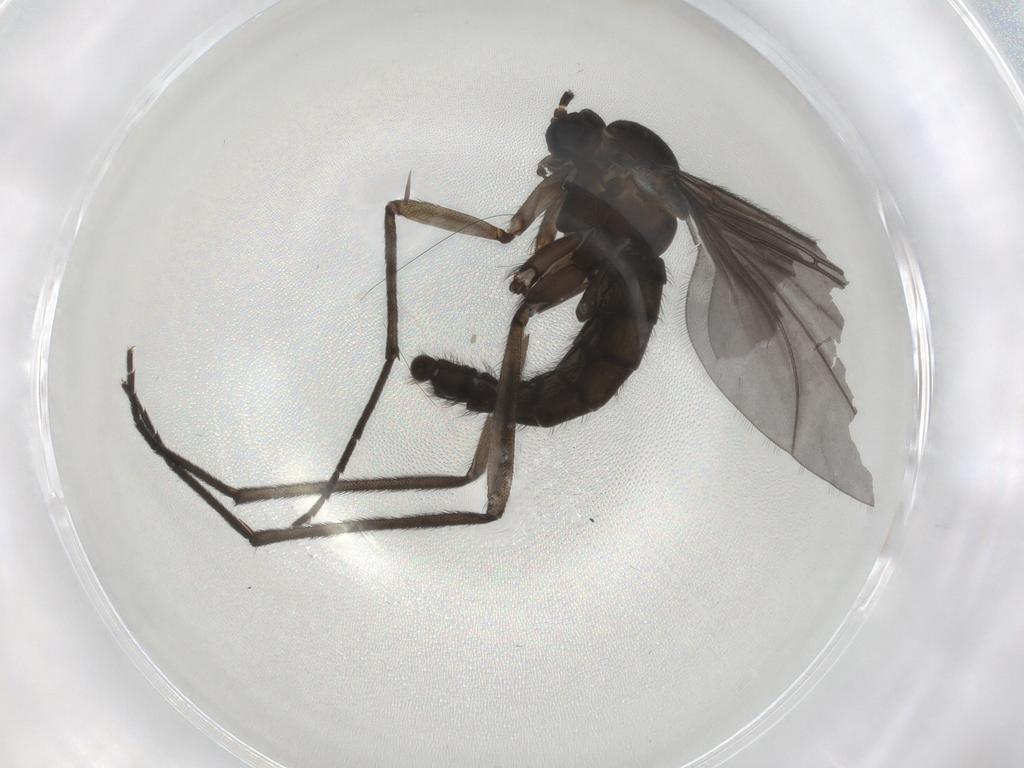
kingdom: Animalia
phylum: Arthropoda
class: Insecta
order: Diptera
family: Sciaridae
